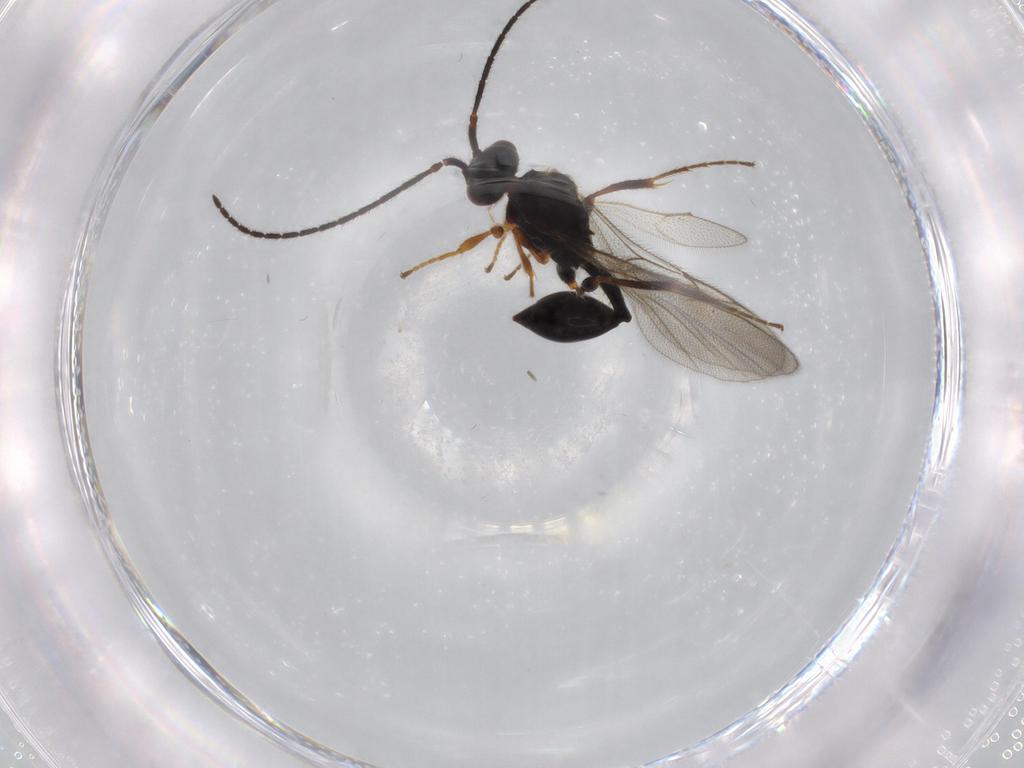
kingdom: Animalia
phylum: Arthropoda
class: Insecta
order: Hymenoptera
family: Diapriidae
